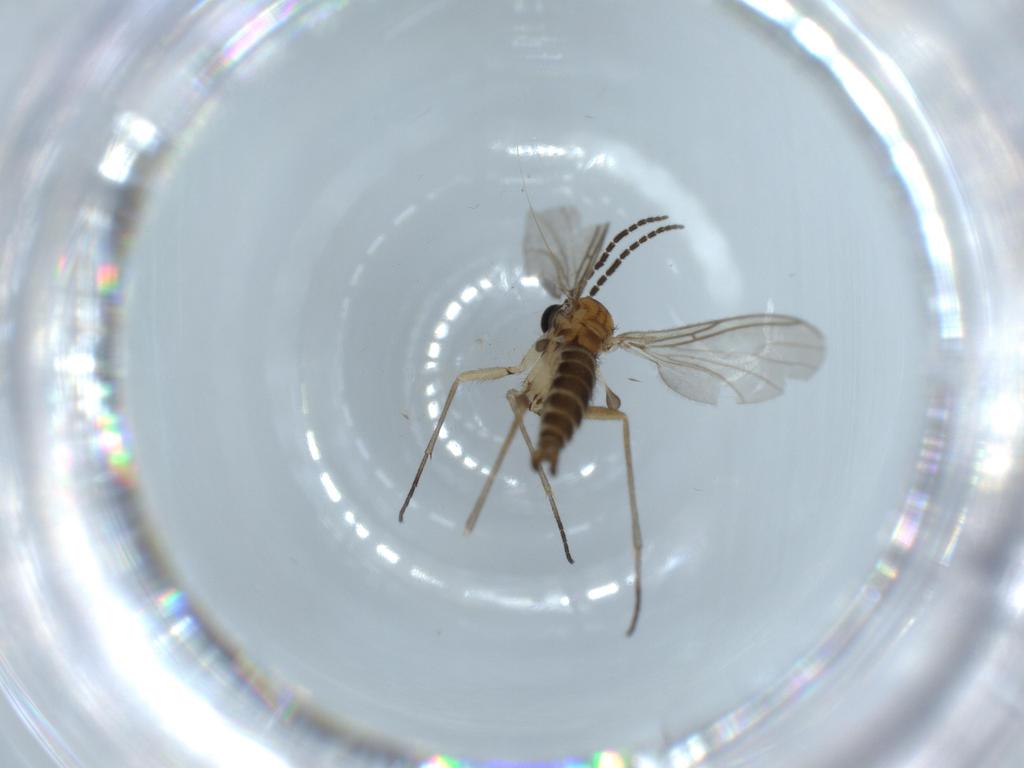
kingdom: Animalia
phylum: Arthropoda
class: Insecta
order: Diptera
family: Sciaridae
